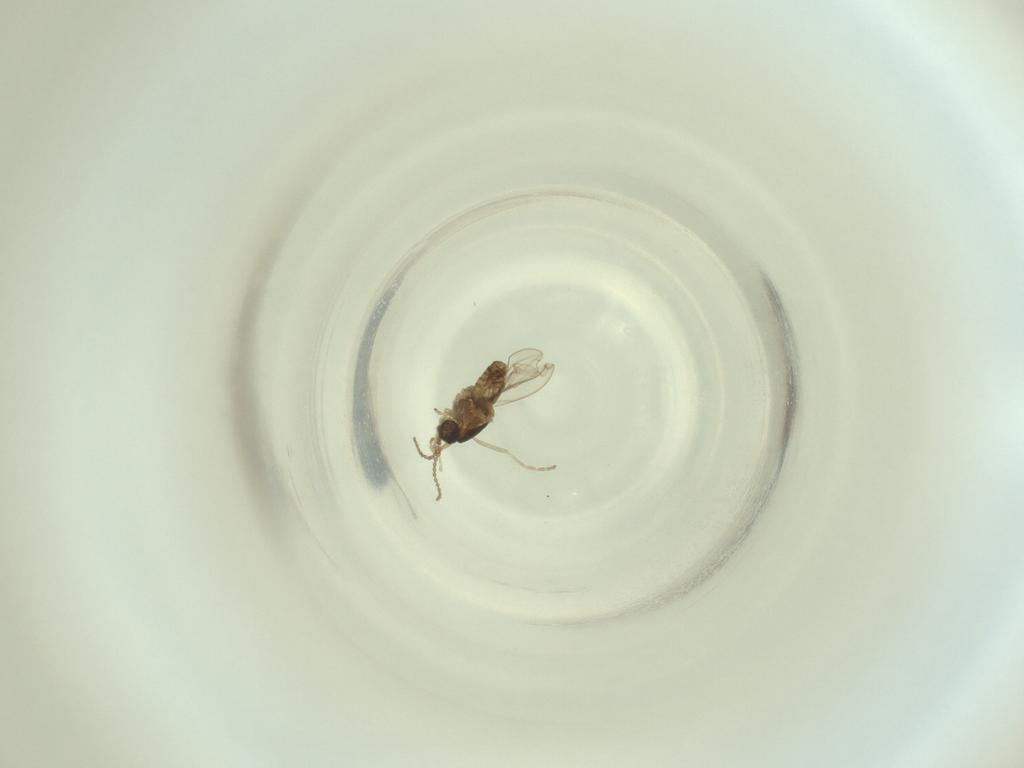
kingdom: Animalia
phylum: Arthropoda
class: Insecta
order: Diptera
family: Cecidomyiidae
